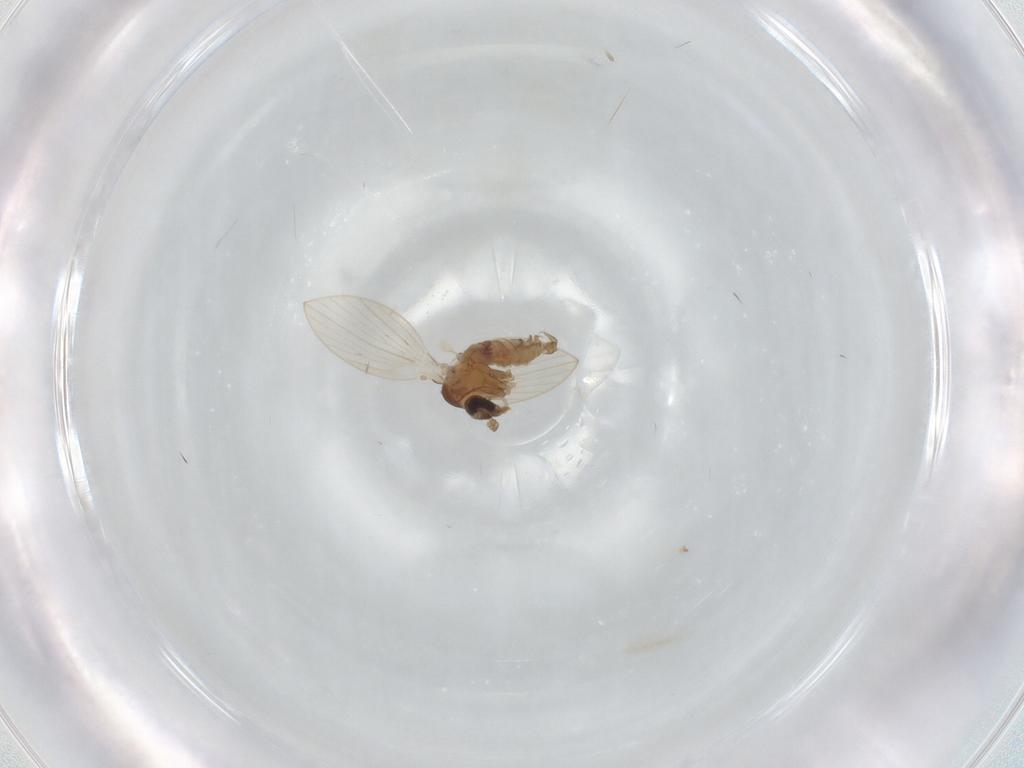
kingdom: Animalia
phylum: Arthropoda
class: Insecta
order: Diptera
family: Psychodidae
